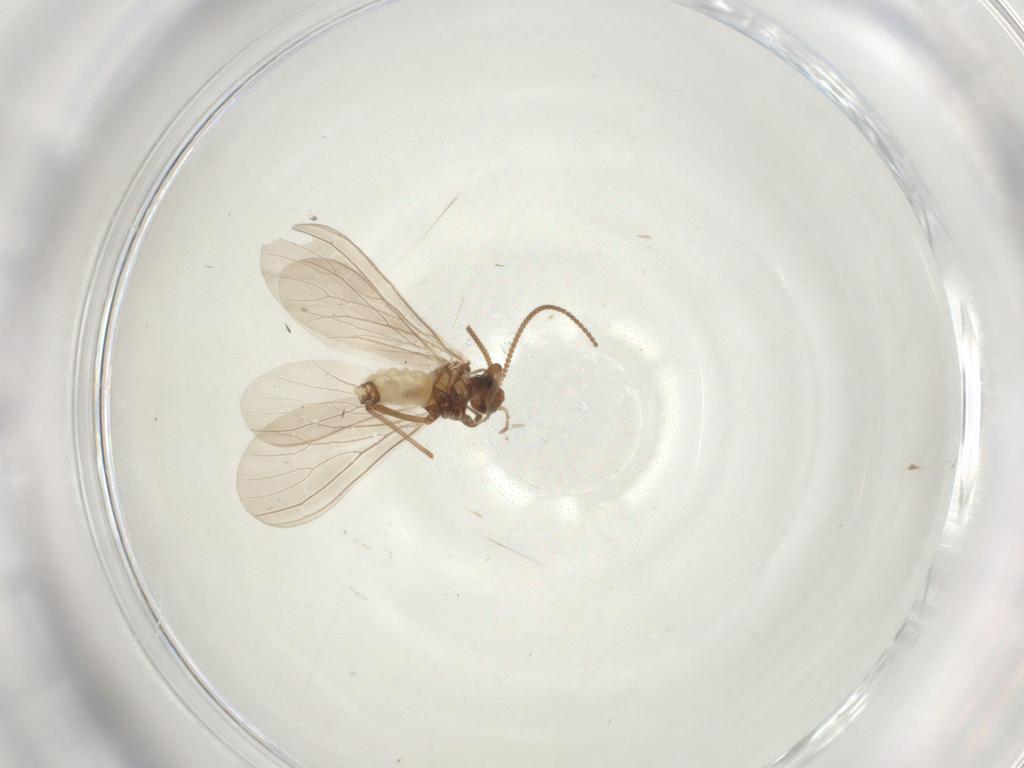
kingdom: Animalia
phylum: Arthropoda
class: Insecta
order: Neuroptera
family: Coniopterygidae
